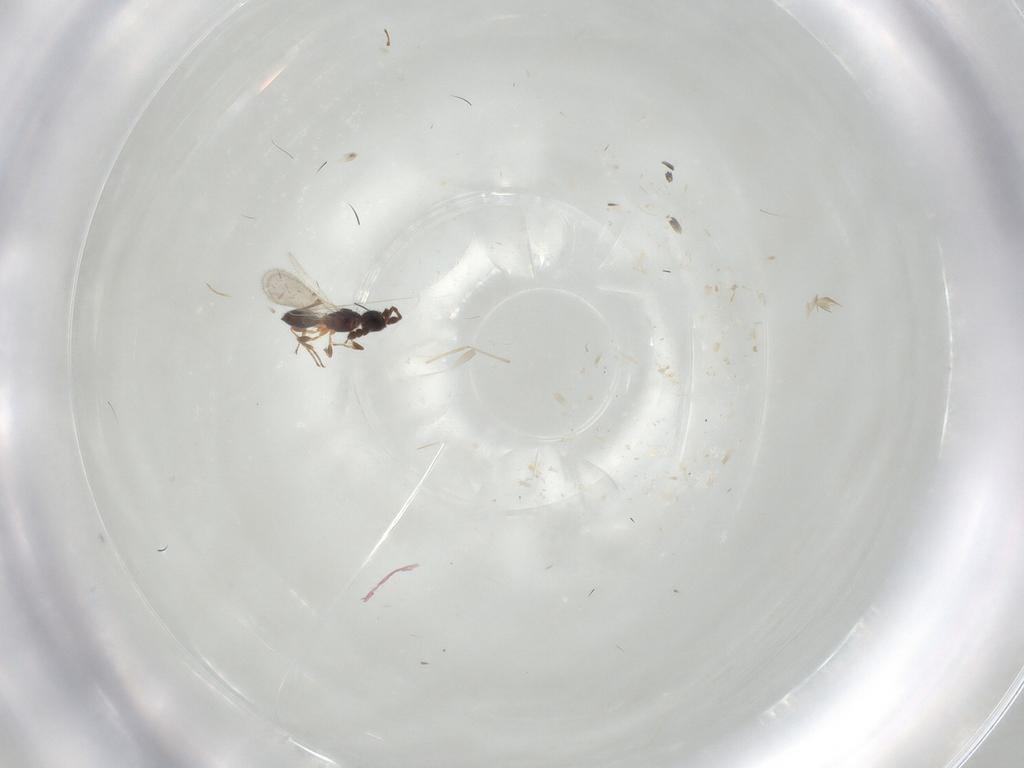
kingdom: Animalia
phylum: Arthropoda
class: Insecta
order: Hymenoptera
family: Diapriidae
